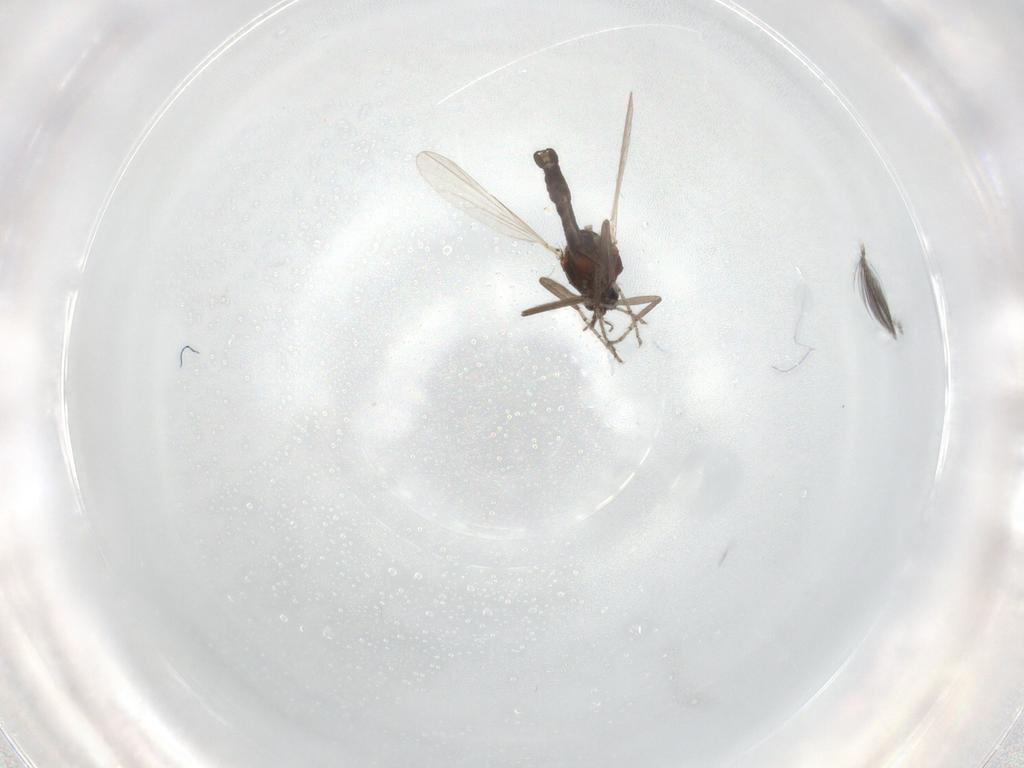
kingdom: Animalia
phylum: Arthropoda
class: Insecta
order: Diptera
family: Ceratopogonidae
